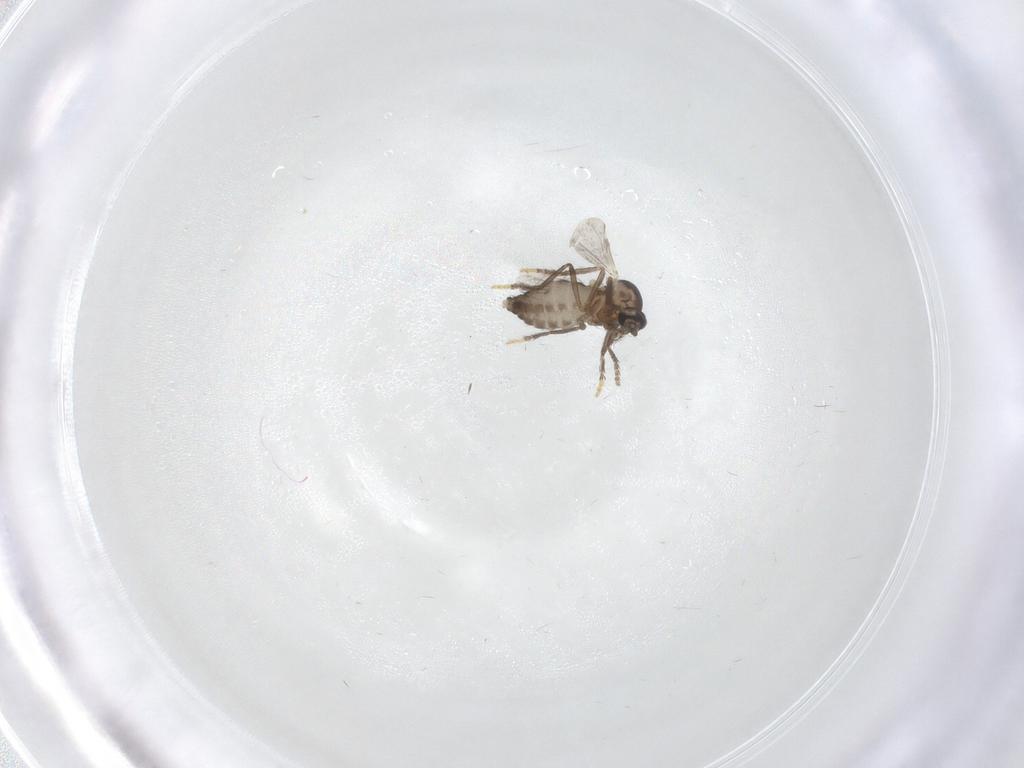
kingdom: Animalia
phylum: Arthropoda
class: Insecta
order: Diptera
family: Ceratopogonidae
